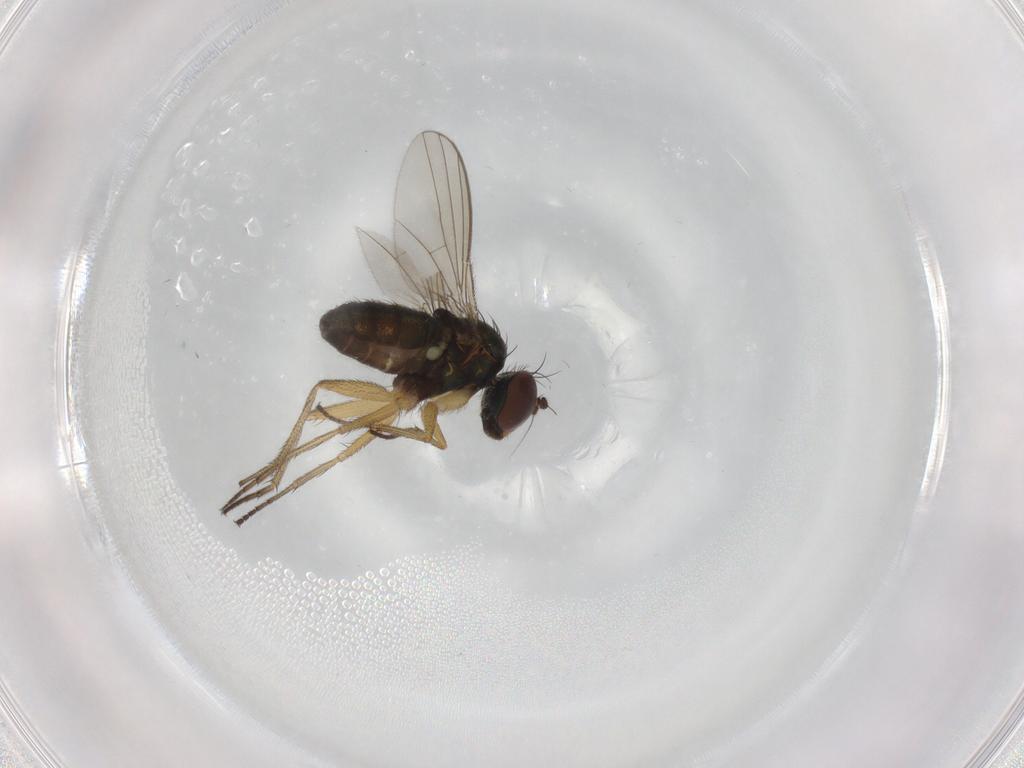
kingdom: Animalia
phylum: Arthropoda
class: Insecta
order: Diptera
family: Dolichopodidae
